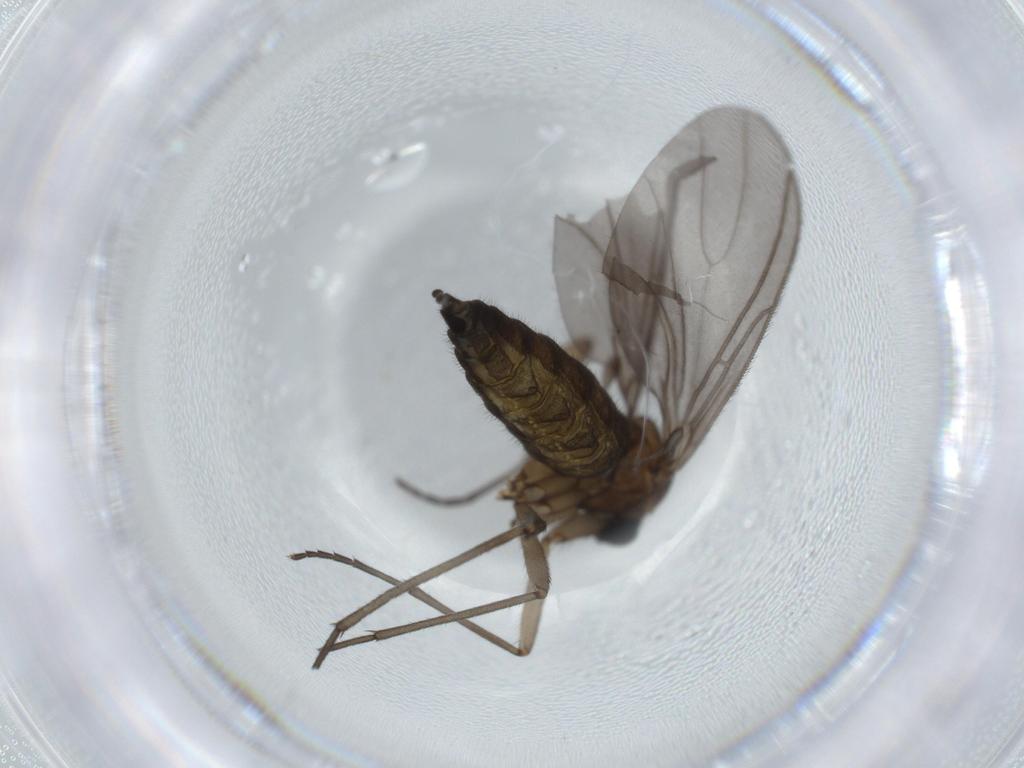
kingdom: Animalia
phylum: Arthropoda
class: Insecta
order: Diptera
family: Sciaridae
